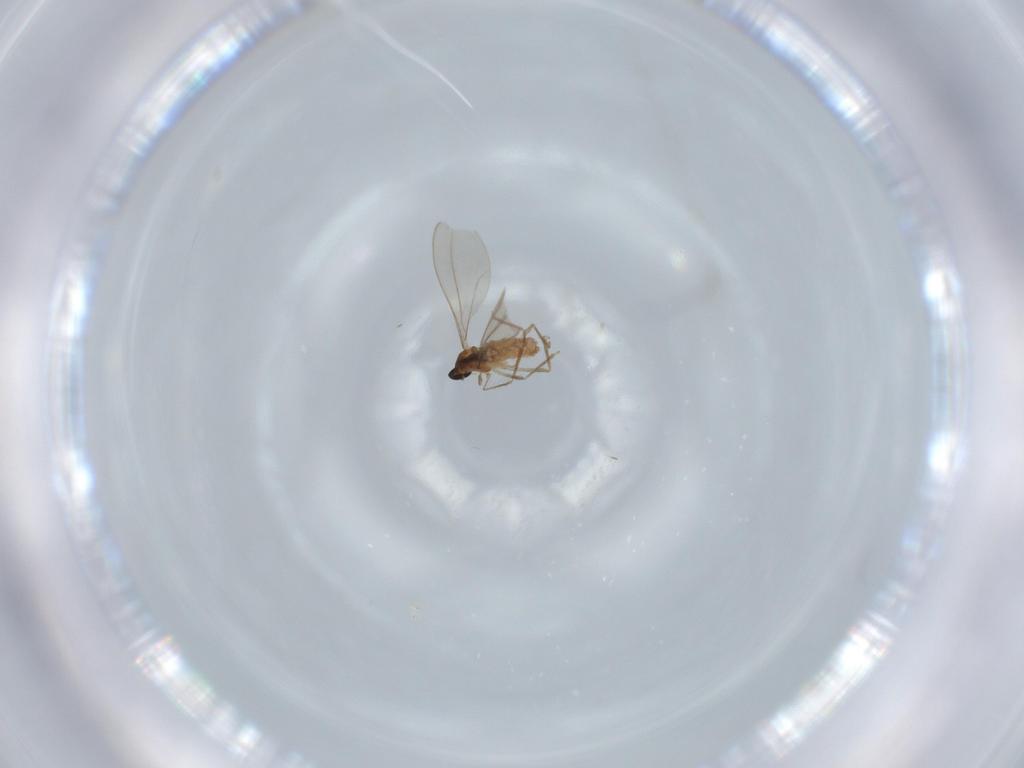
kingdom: Animalia
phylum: Arthropoda
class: Insecta
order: Diptera
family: Cecidomyiidae
